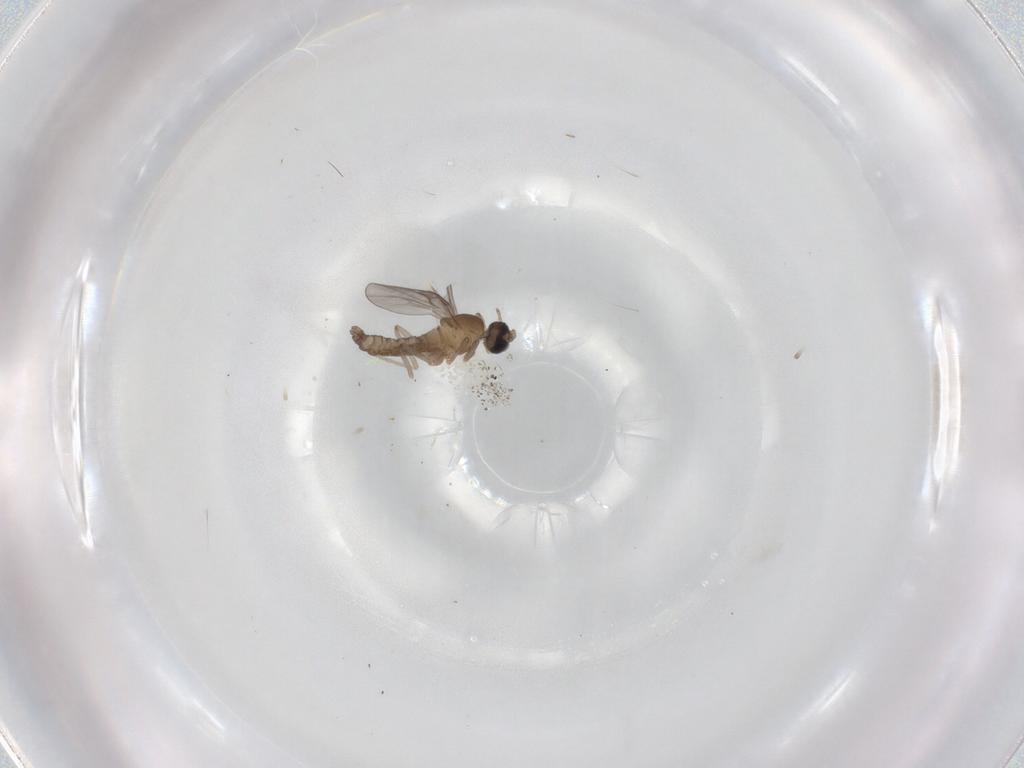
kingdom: Animalia
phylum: Arthropoda
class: Insecta
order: Diptera
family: Cecidomyiidae
